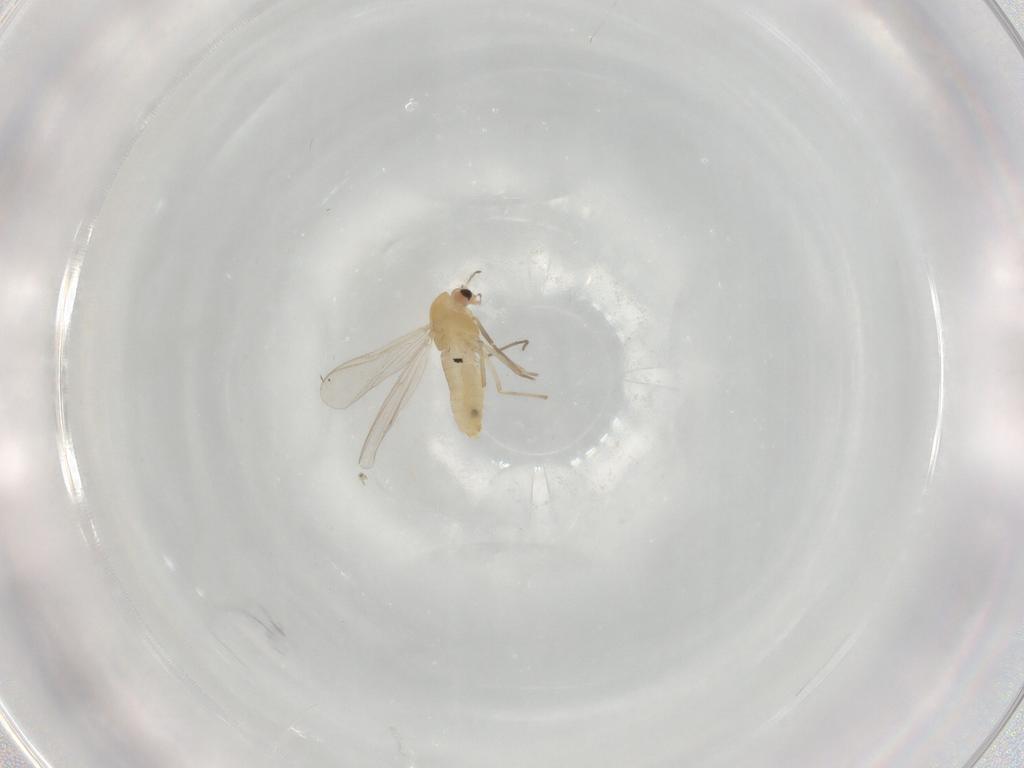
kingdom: Animalia
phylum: Arthropoda
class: Insecta
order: Diptera
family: Chironomidae
